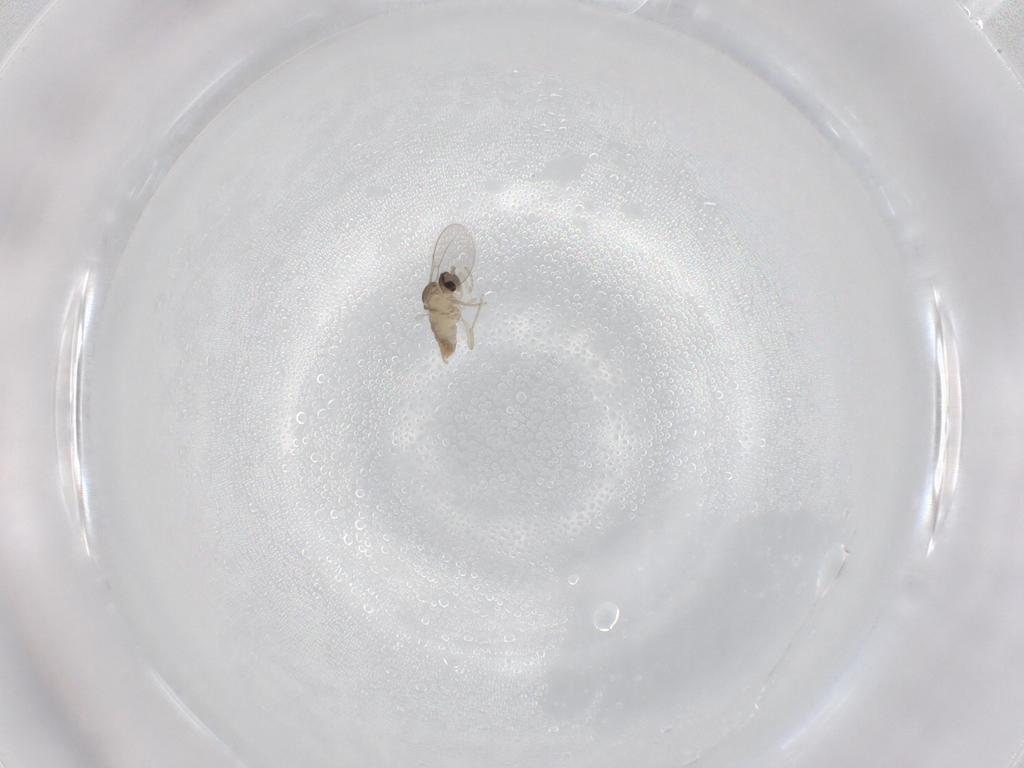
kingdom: Animalia
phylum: Arthropoda
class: Insecta
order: Diptera
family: Cecidomyiidae
